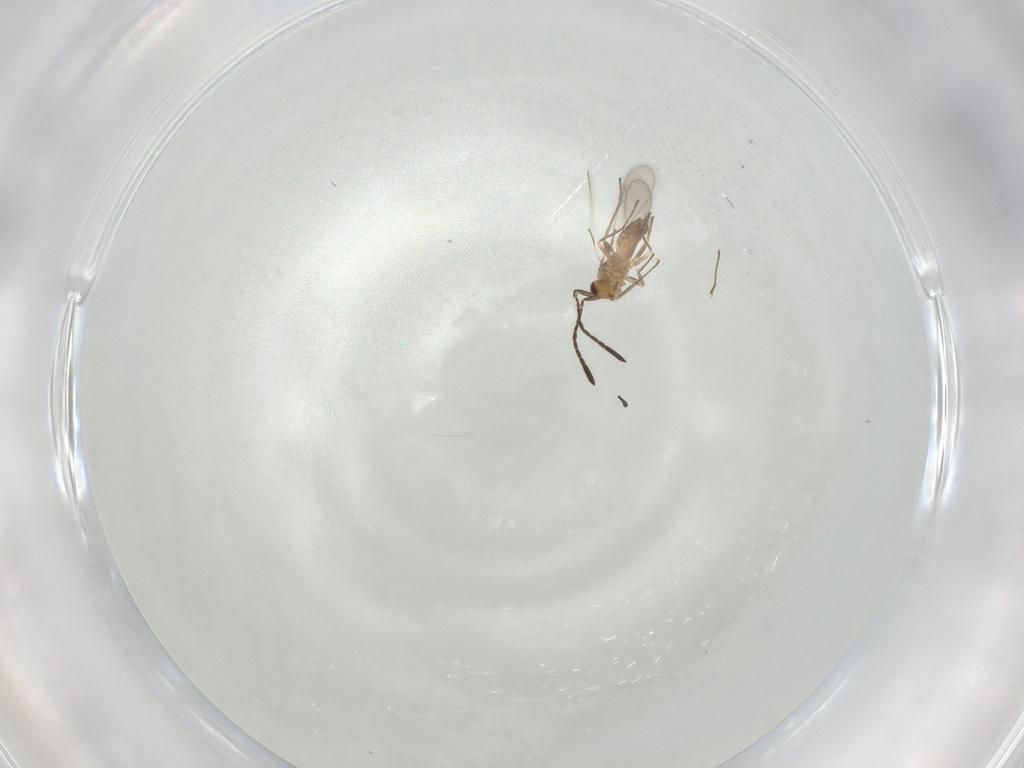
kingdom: Animalia
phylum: Arthropoda
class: Insecta
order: Hymenoptera
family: Mymaridae
